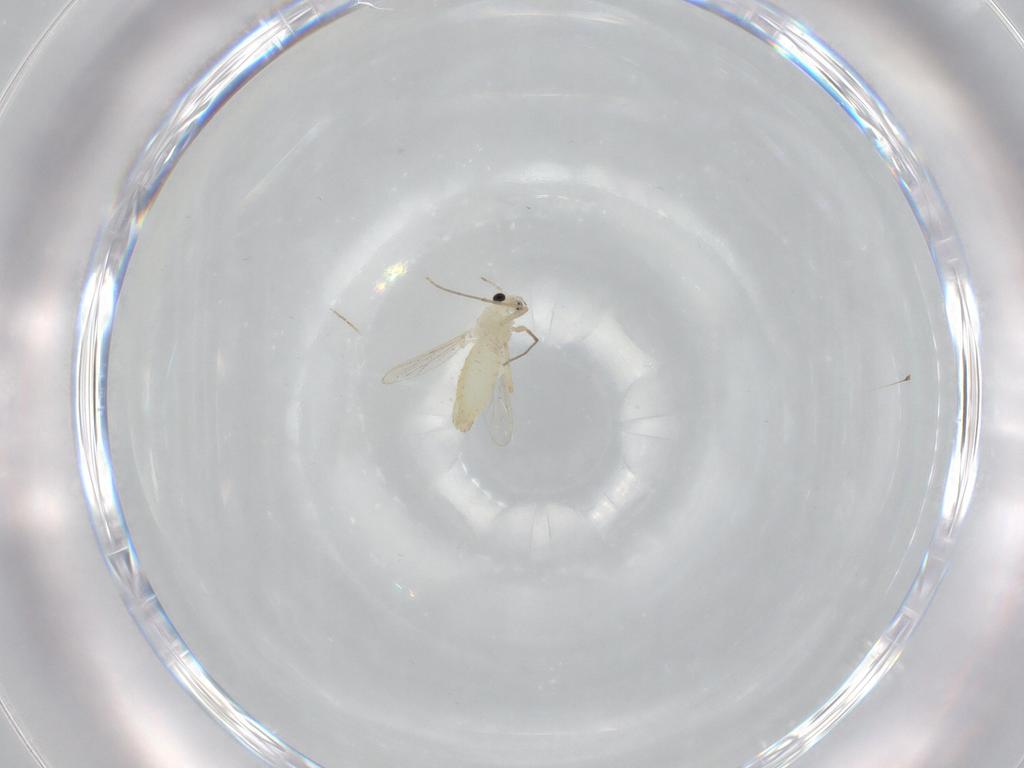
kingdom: Animalia
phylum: Arthropoda
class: Insecta
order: Diptera
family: Chironomidae
